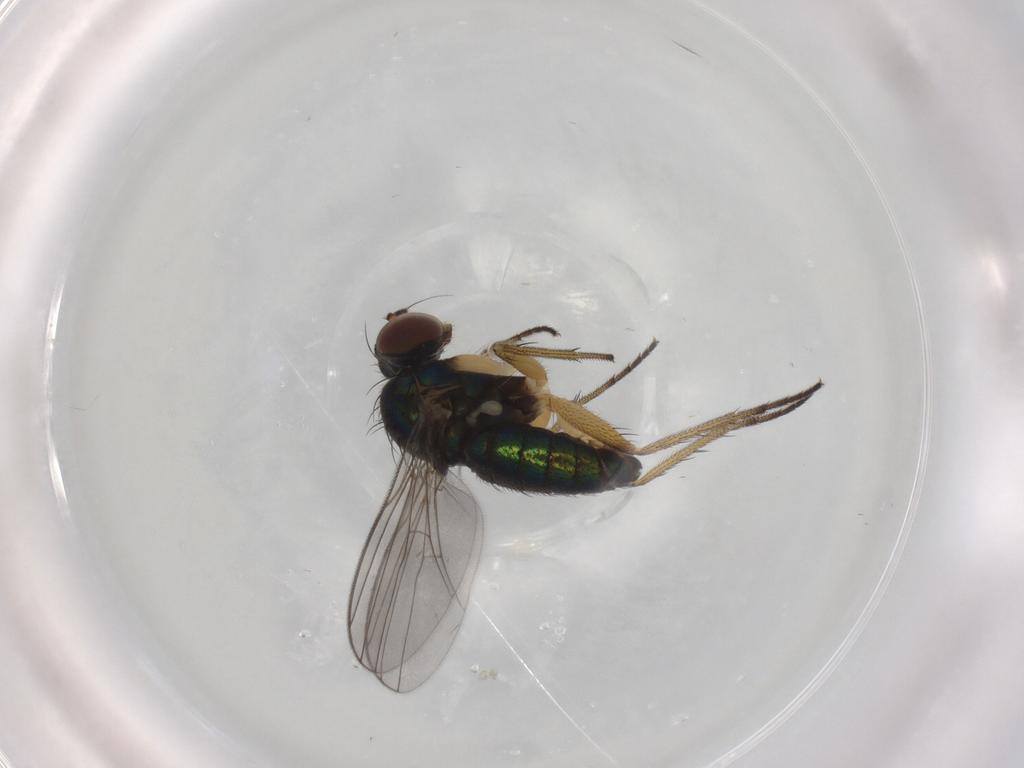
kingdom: Animalia
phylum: Arthropoda
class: Insecta
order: Diptera
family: Dolichopodidae
